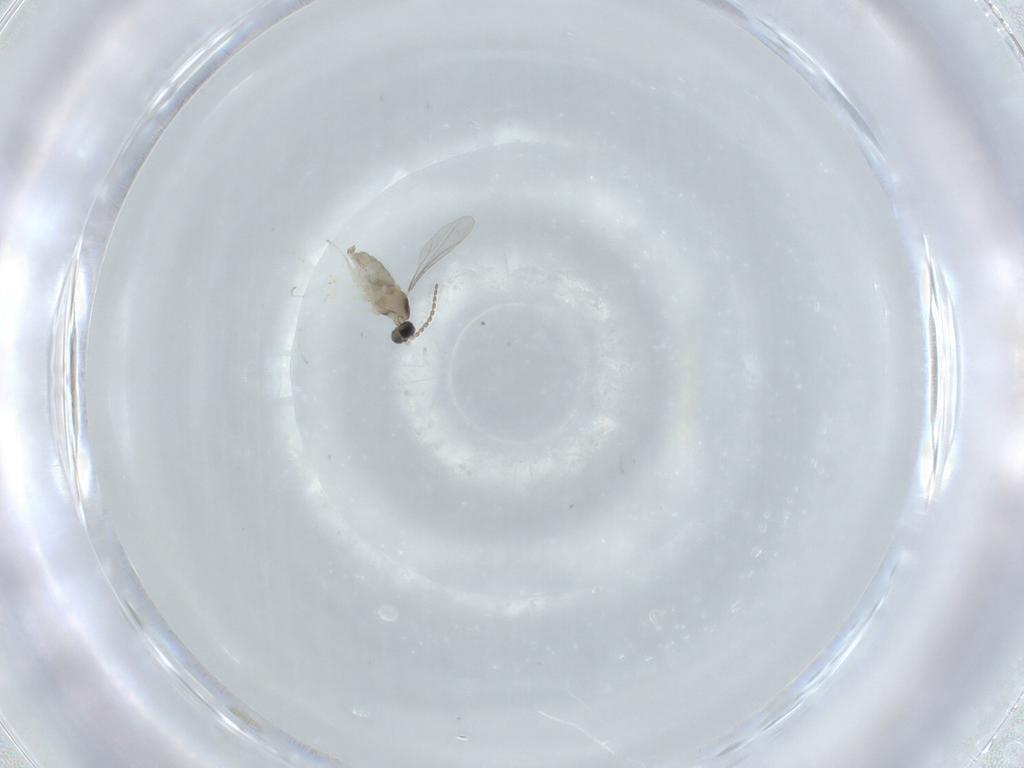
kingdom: Animalia
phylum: Arthropoda
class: Insecta
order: Diptera
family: Cecidomyiidae
